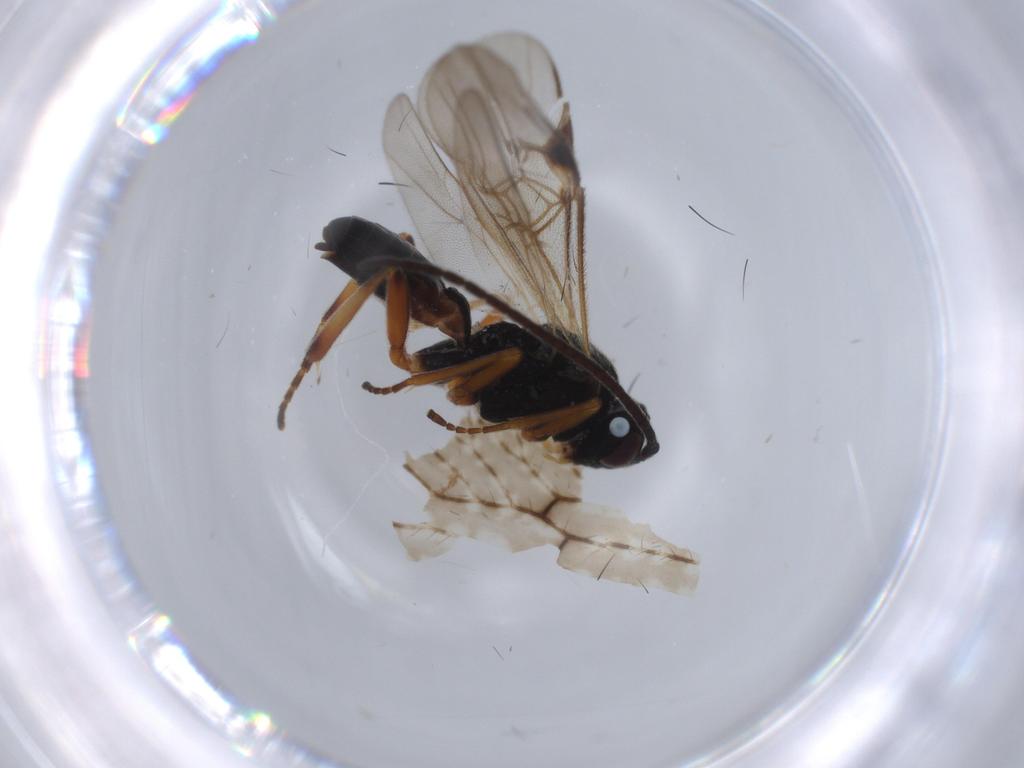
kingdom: Animalia
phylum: Arthropoda
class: Insecta
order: Hymenoptera
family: Braconidae
